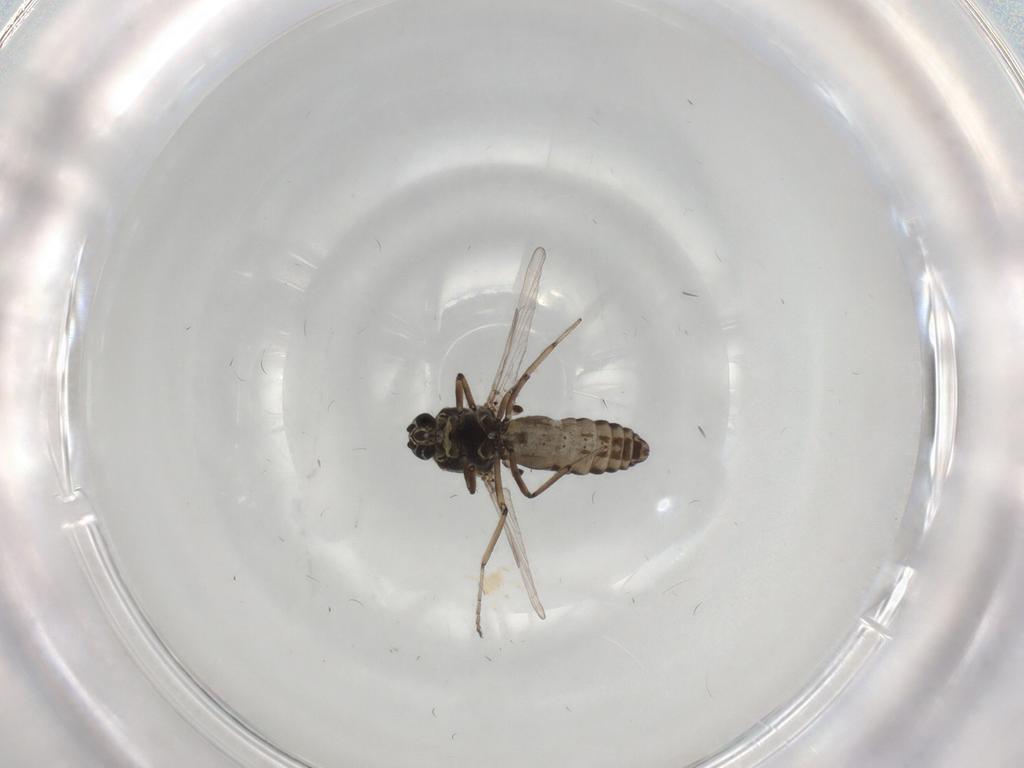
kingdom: Animalia
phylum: Arthropoda
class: Insecta
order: Diptera
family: Ceratopogonidae
